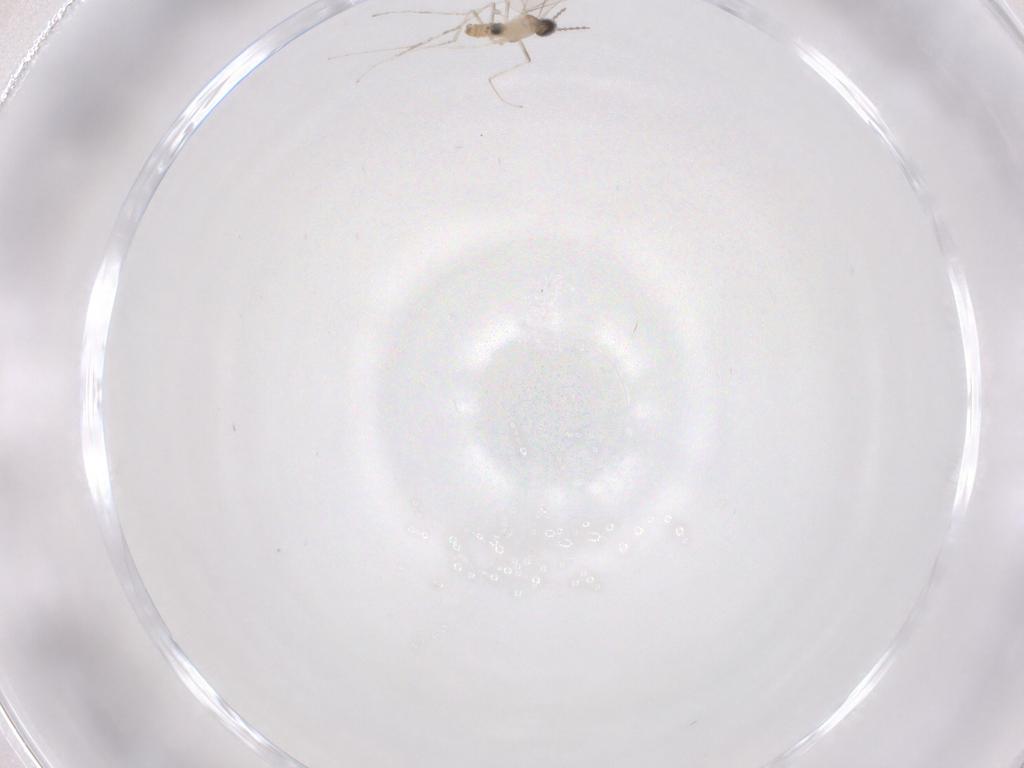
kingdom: Animalia
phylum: Arthropoda
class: Insecta
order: Diptera
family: Cecidomyiidae
